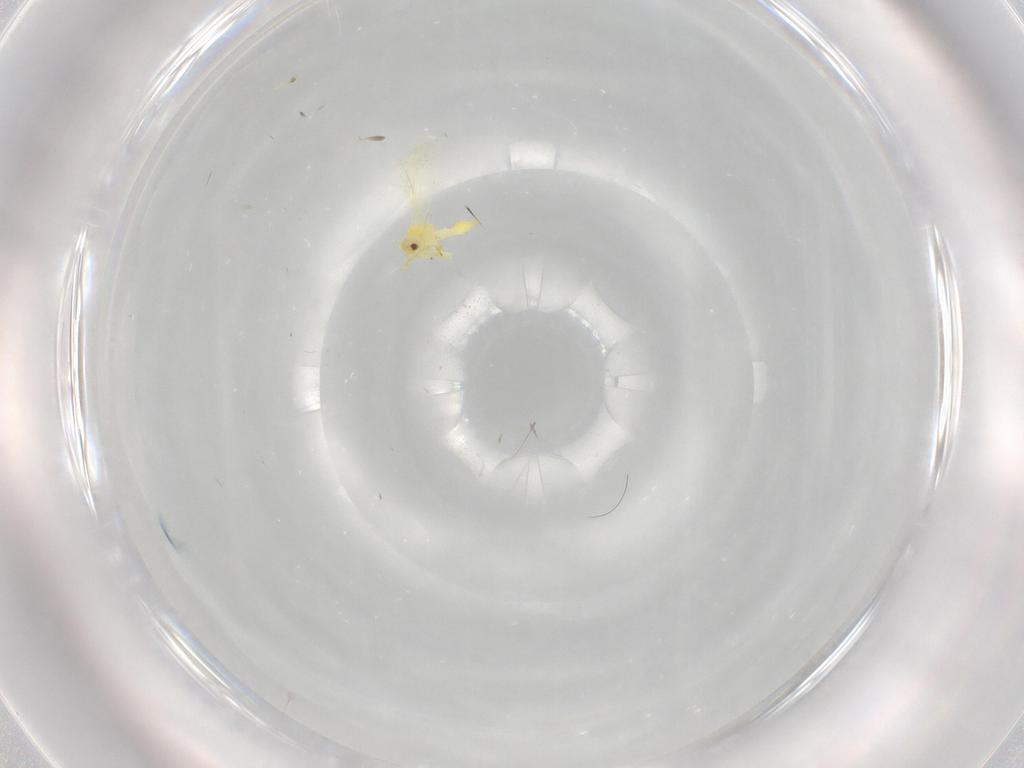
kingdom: Animalia
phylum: Arthropoda
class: Insecta
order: Hemiptera
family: Aleyrodidae
